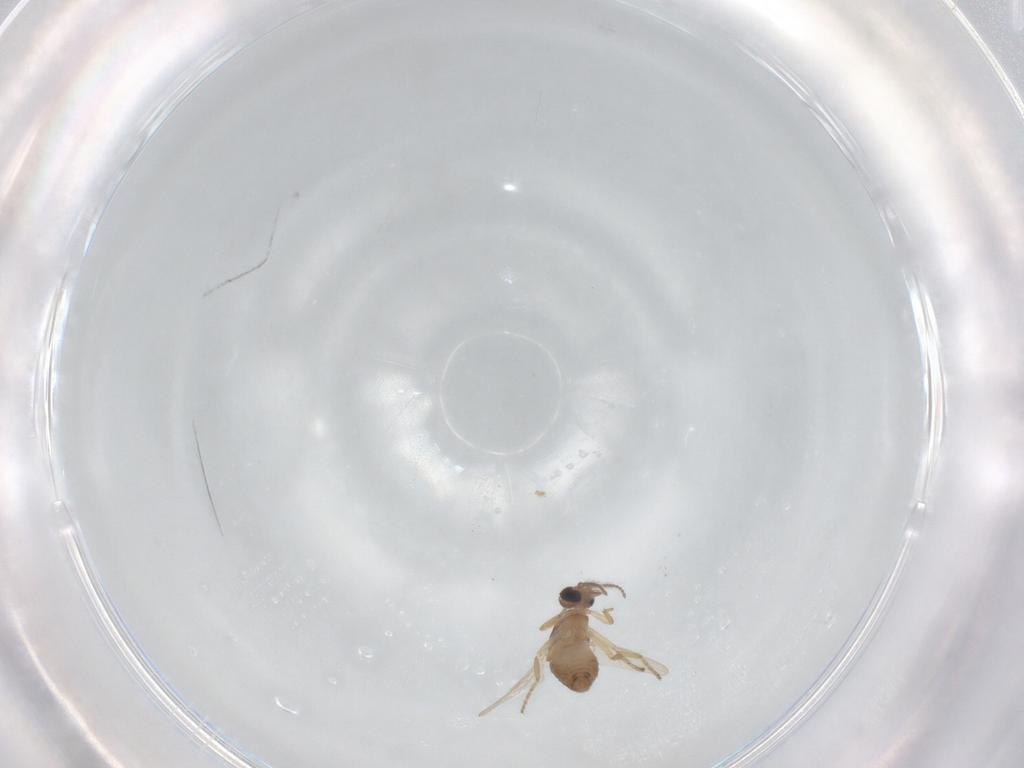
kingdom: Animalia
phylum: Arthropoda
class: Insecta
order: Diptera
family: Ceratopogonidae
